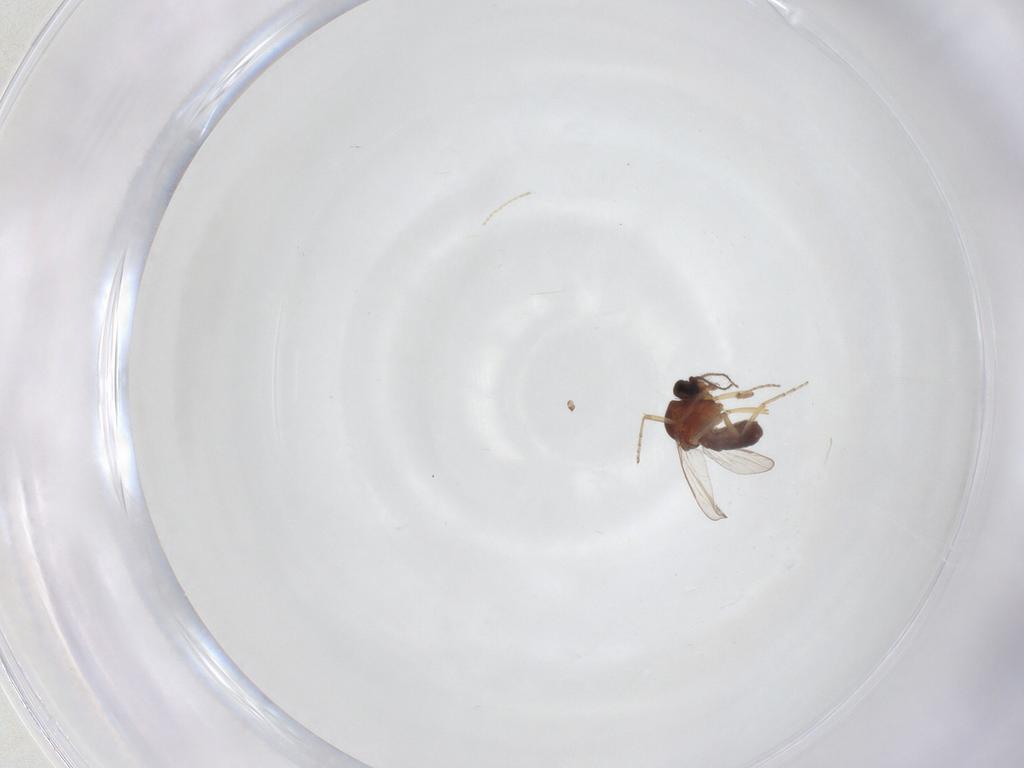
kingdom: Animalia
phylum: Arthropoda
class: Insecta
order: Diptera
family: Ceratopogonidae
